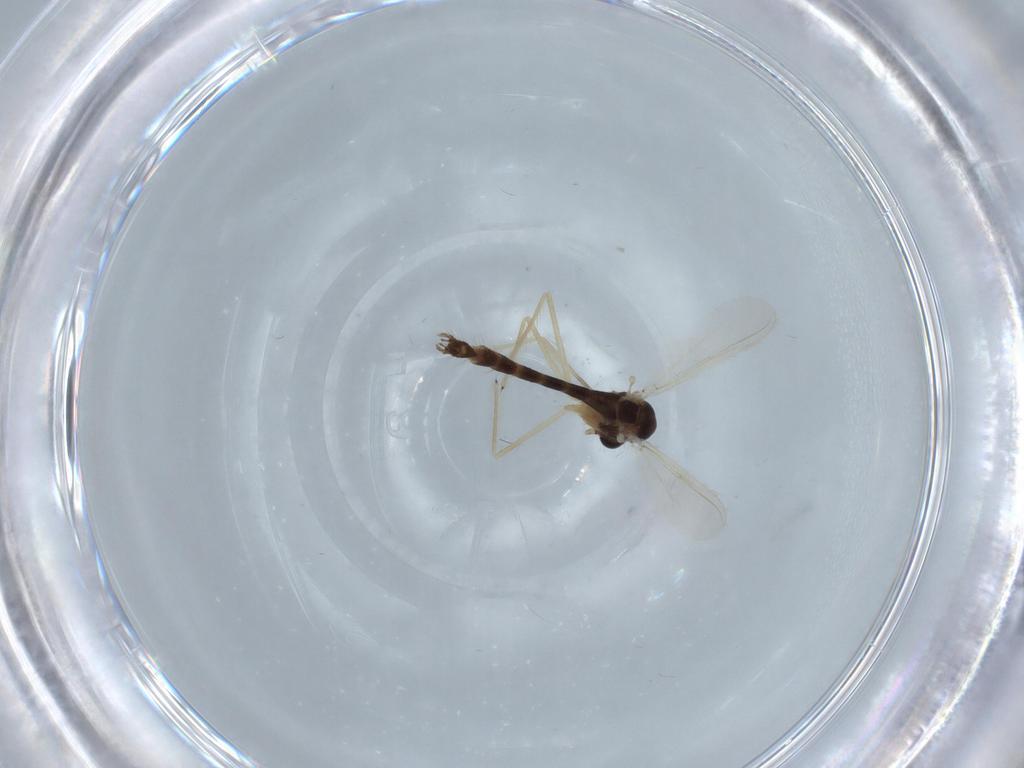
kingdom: Animalia
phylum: Arthropoda
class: Insecta
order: Diptera
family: Chironomidae
